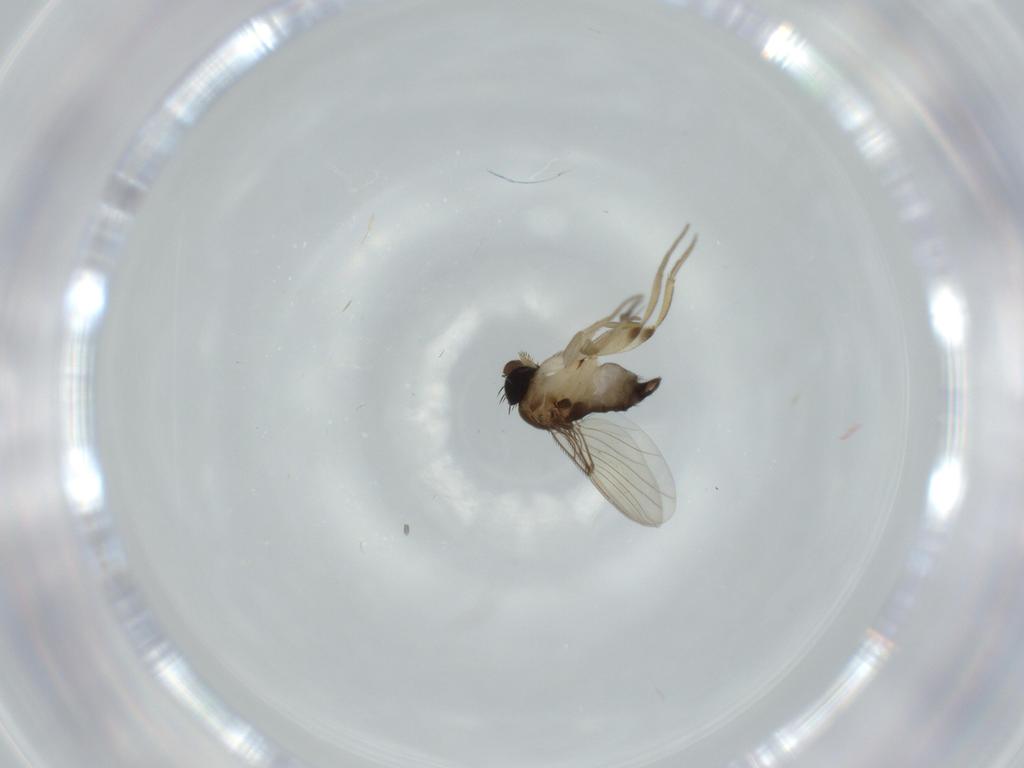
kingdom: Animalia
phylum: Arthropoda
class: Insecta
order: Diptera
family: Phoridae
